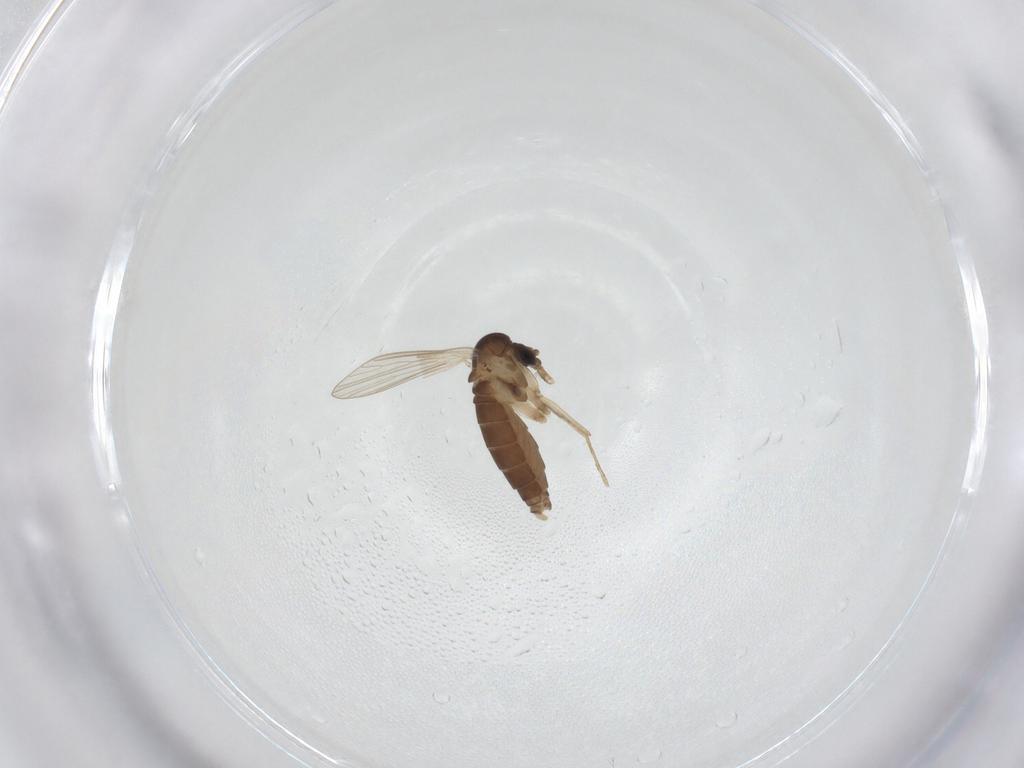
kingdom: Animalia
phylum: Arthropoda
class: Insecta
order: Diptera
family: Psychodidae
